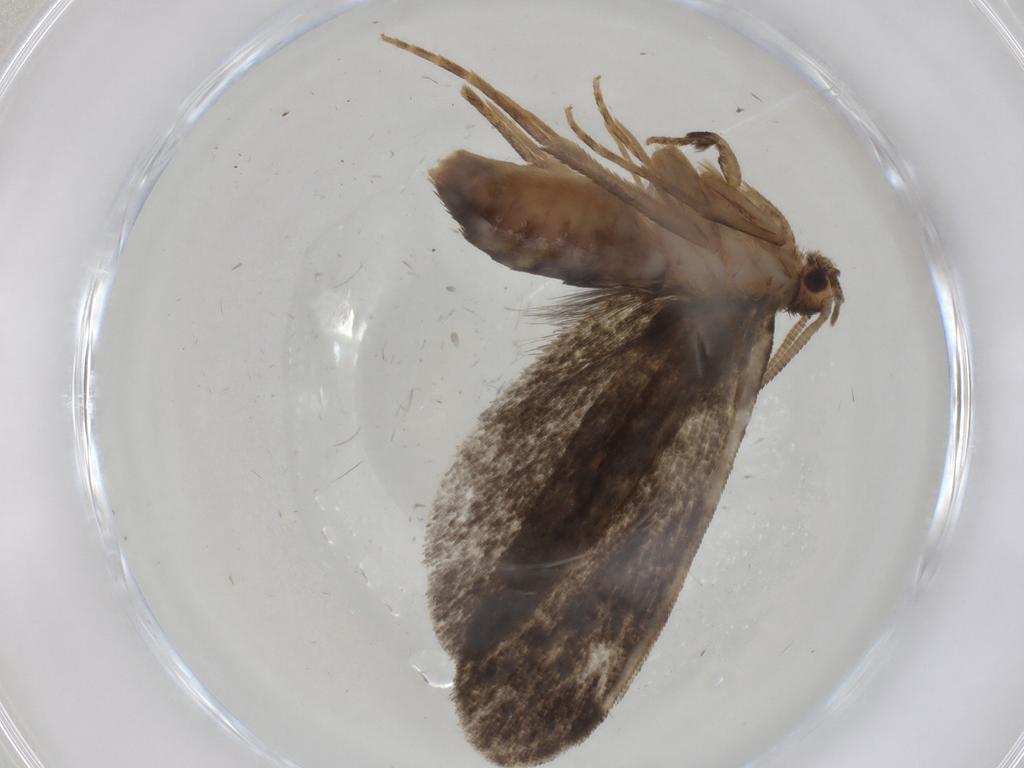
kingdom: Animalia
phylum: Arthropoda
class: Insecta
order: Lepidoptera
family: Dryadaulidae
